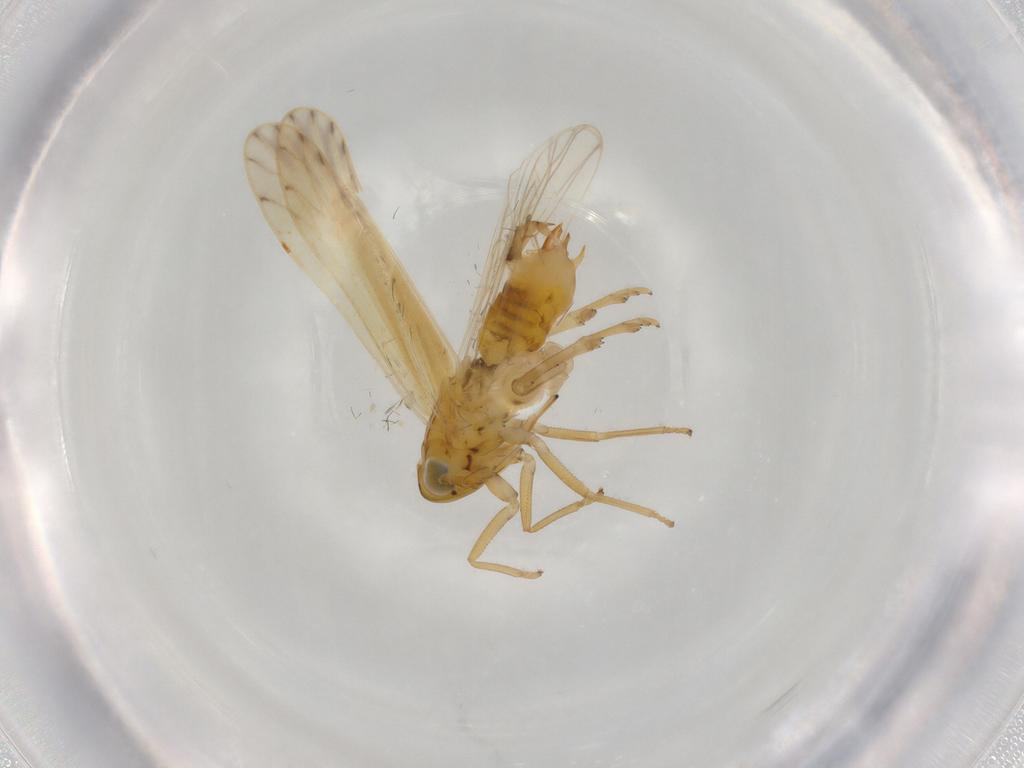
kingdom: Animalia
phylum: Arthropoda
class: Insecta
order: Hemiptera
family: Delphacidae
